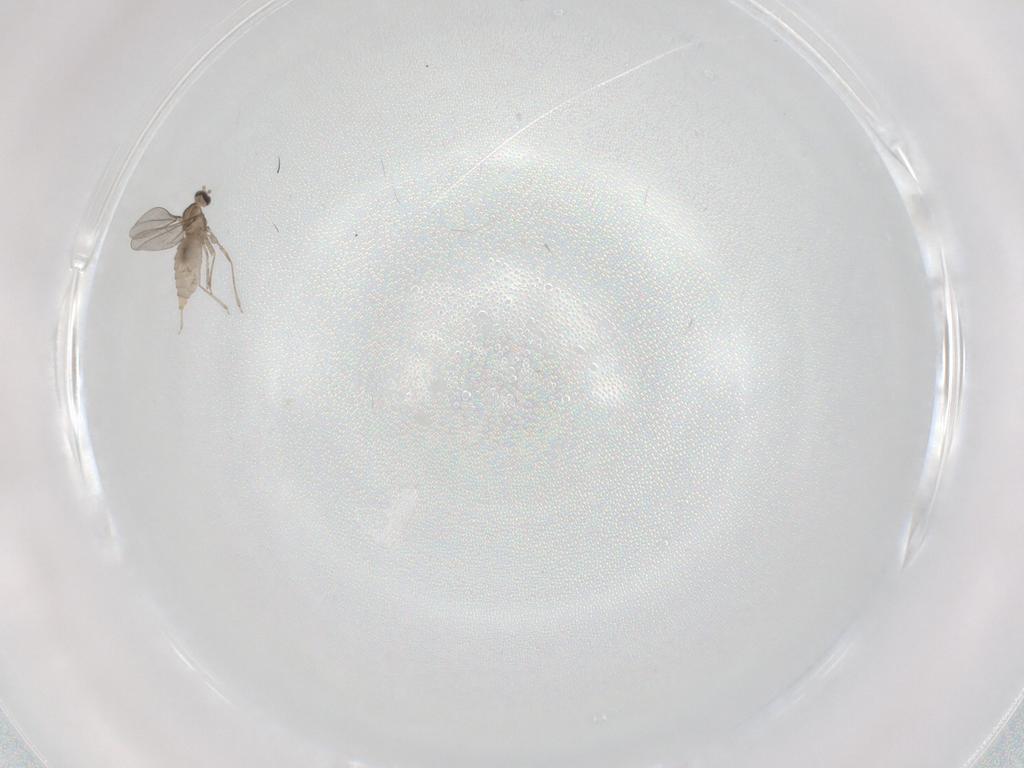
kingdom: Animalia
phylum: Arthropoda
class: Insecta
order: Diptera
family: Cecidomyiidae
